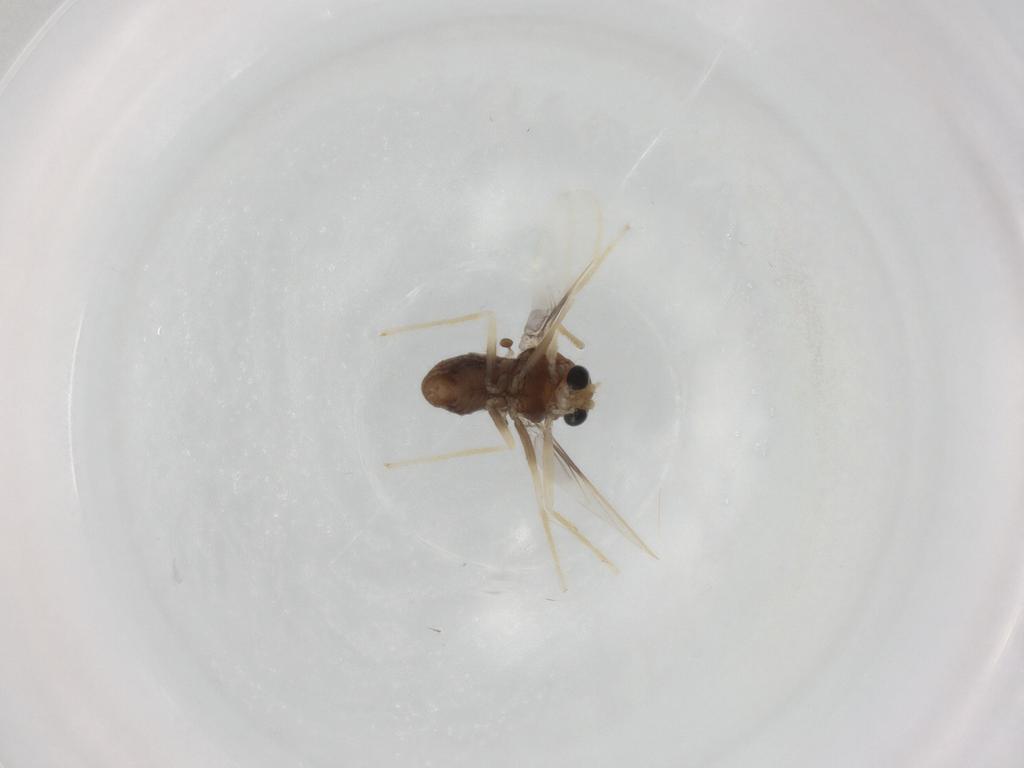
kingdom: Animalia
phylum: Arthropoda
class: Insecta
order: Diptera
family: Chironomidae
